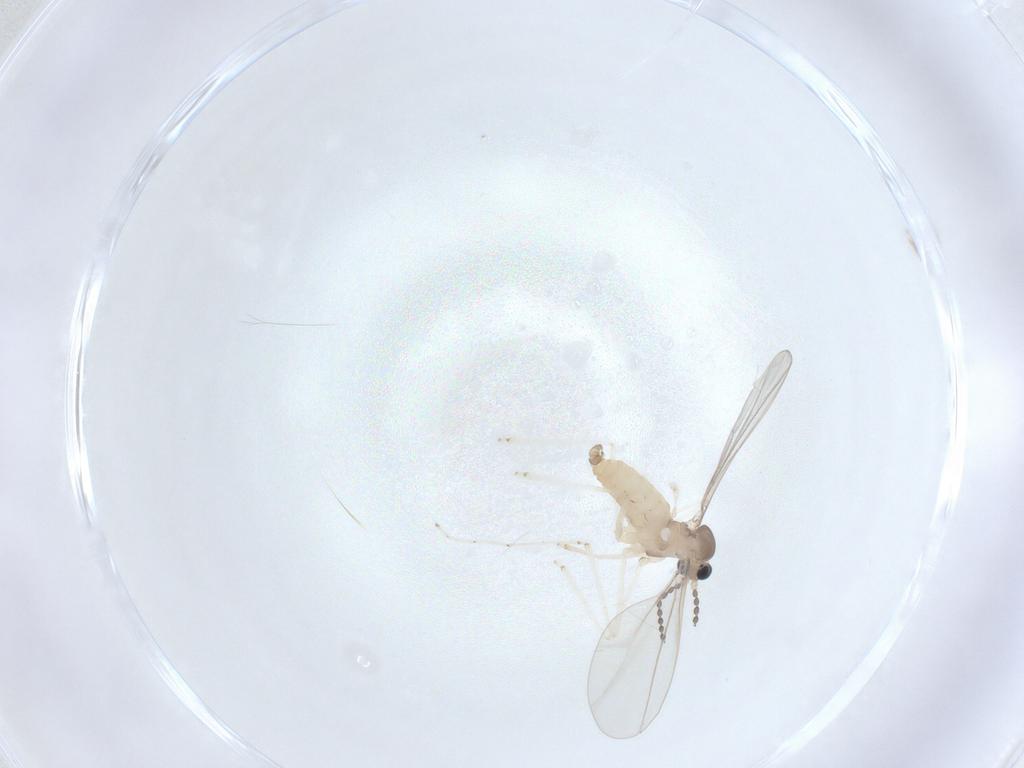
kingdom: Animalia
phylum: Arthropoda
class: Insecta
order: Diptera
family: Cecidomyiidae
